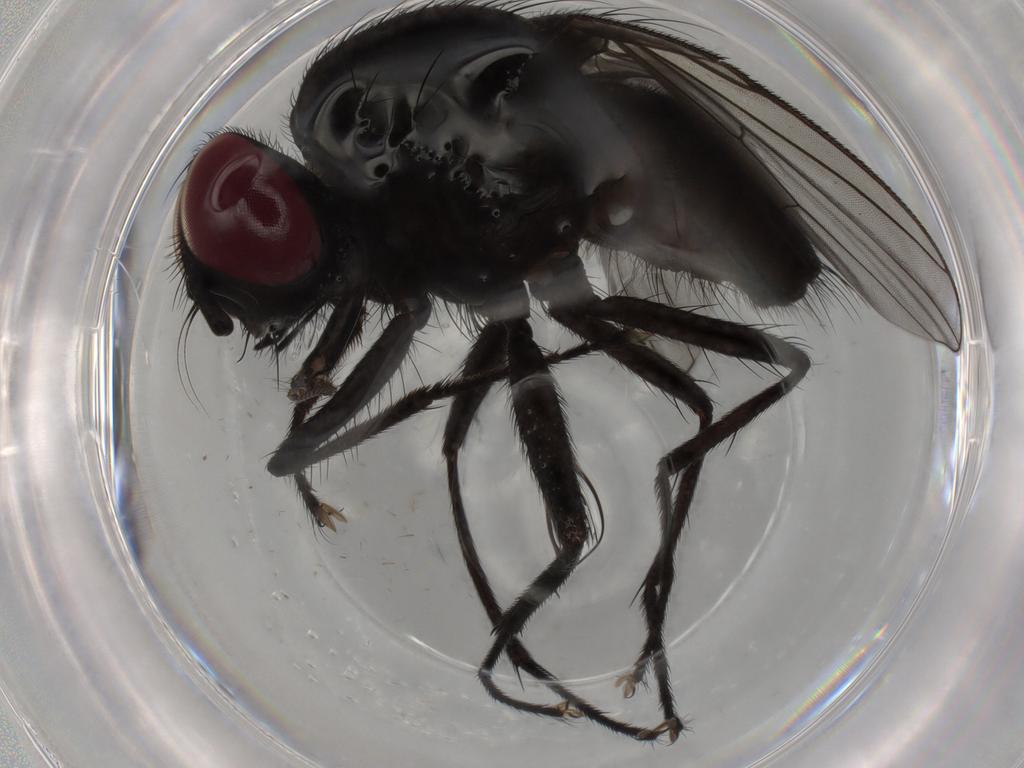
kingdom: Animalia
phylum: Arthropoda
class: Insecta
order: Diptera
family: Muscidae
